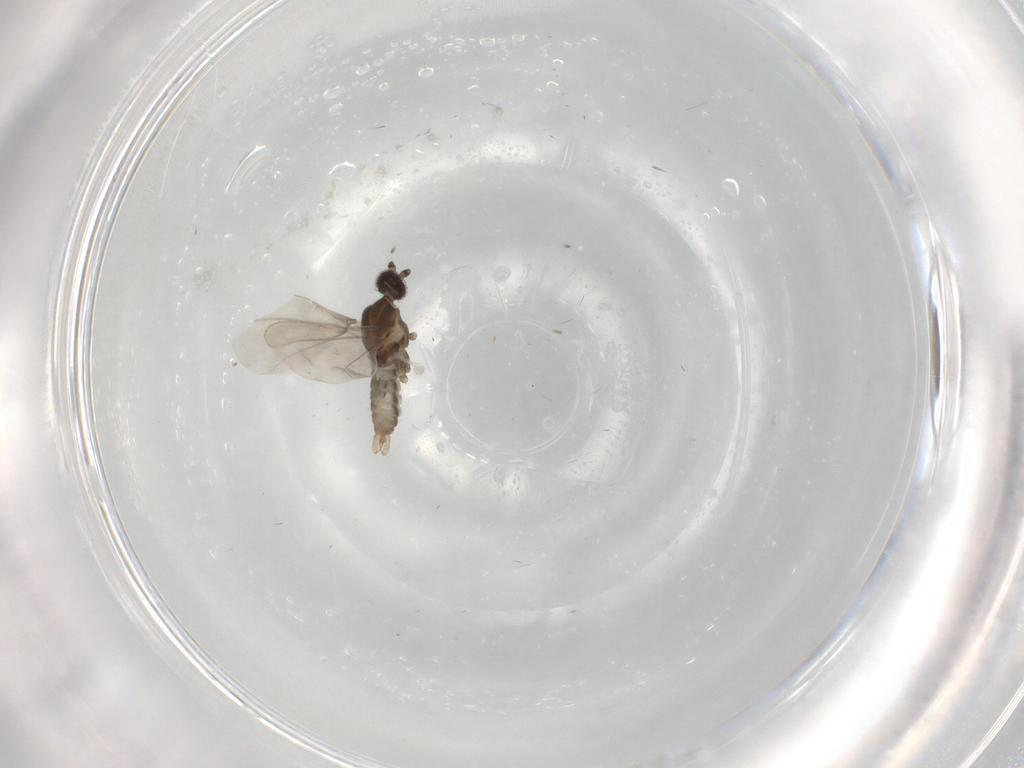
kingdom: Animalia
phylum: Arthropoda
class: Insecta
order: Diptera
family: Cecidomyiidae
